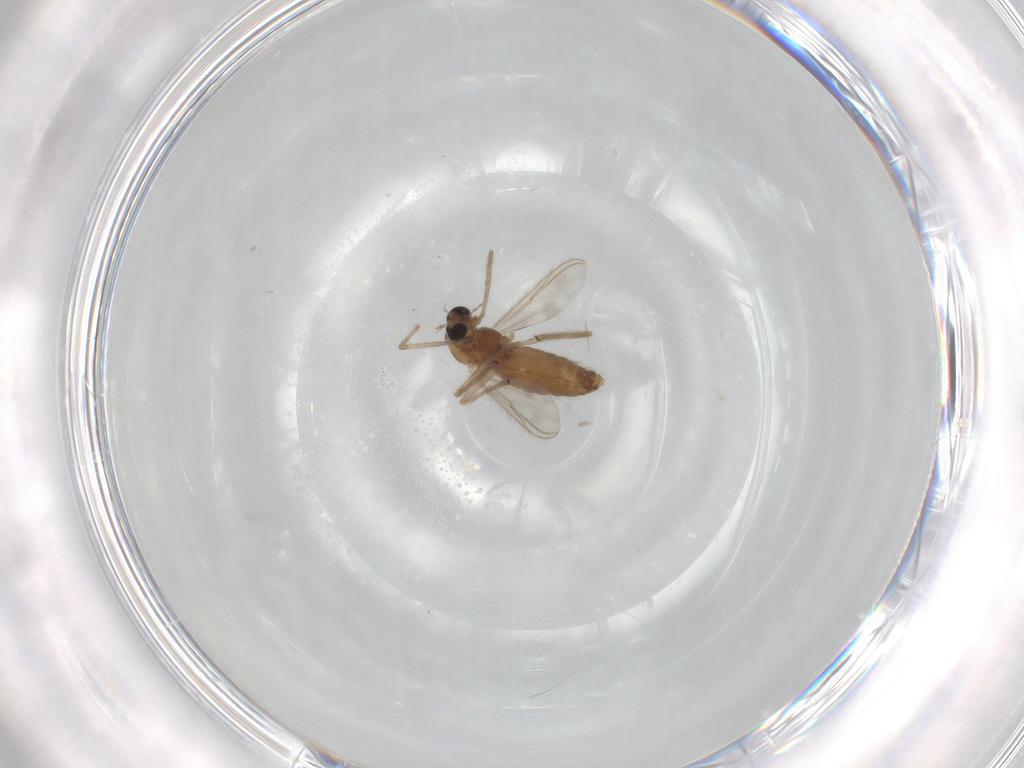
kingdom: Animalia
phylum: Arthropoda
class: Insecta
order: Diptera
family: Chironomidae
